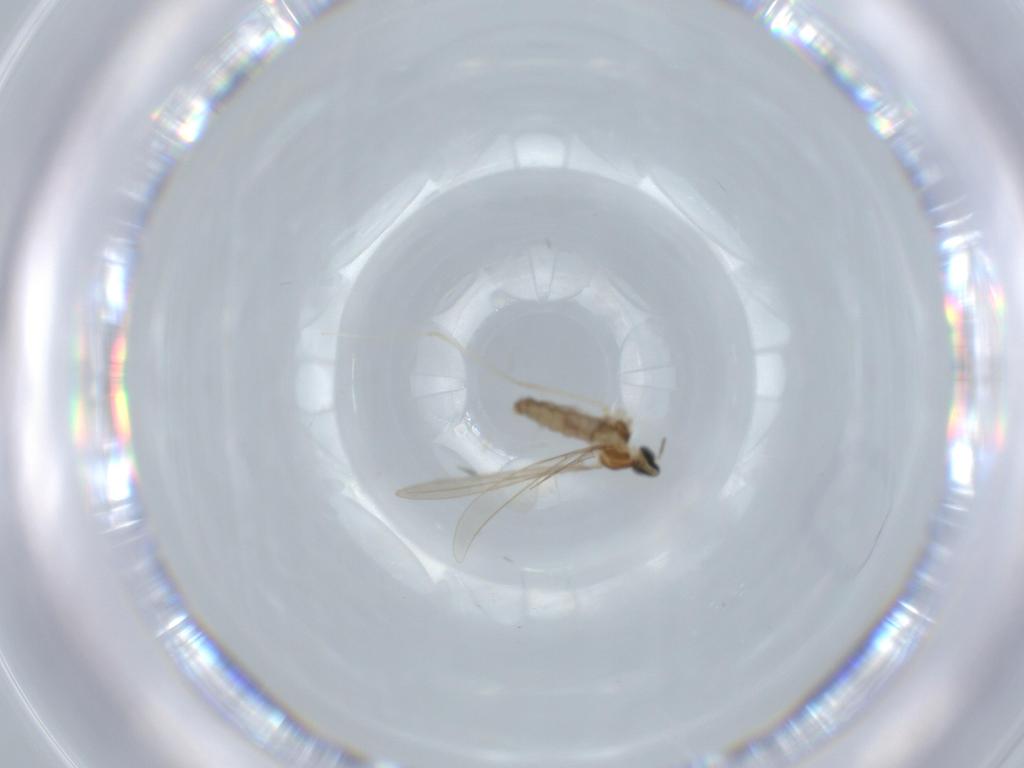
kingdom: Animalia
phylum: Arthropoda
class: Insecta
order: Diptera
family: Cecidomyiidae
